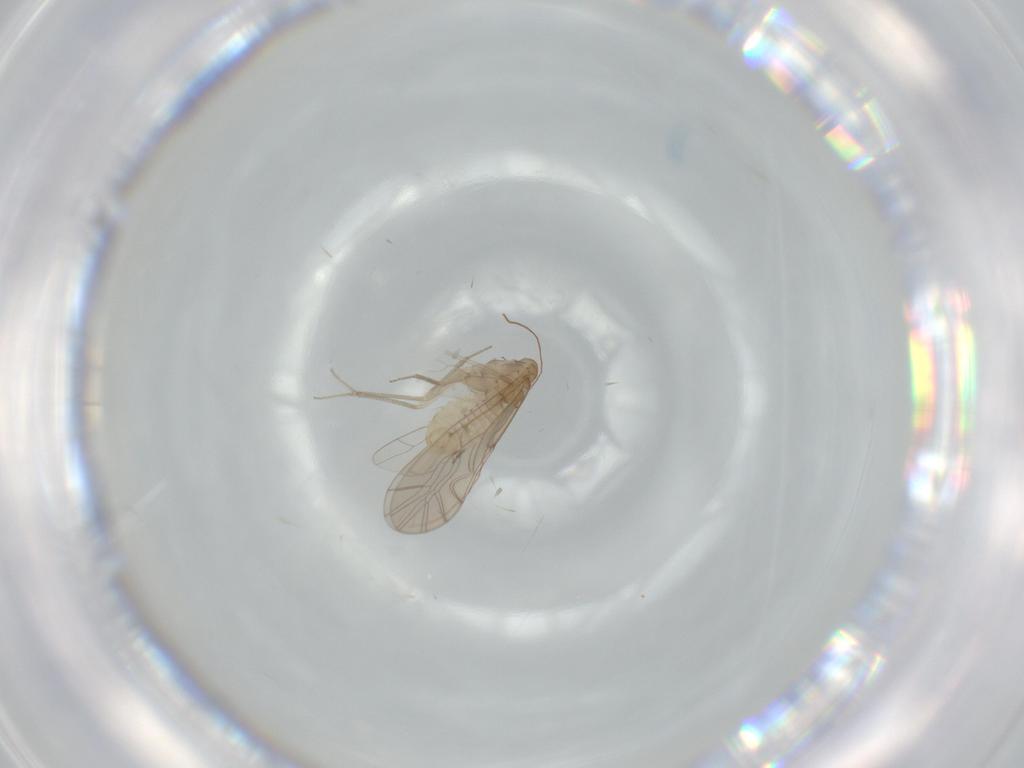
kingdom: Animalia
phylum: Arthropoda
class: Insecta
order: Psocodea
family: Lachesillidae
